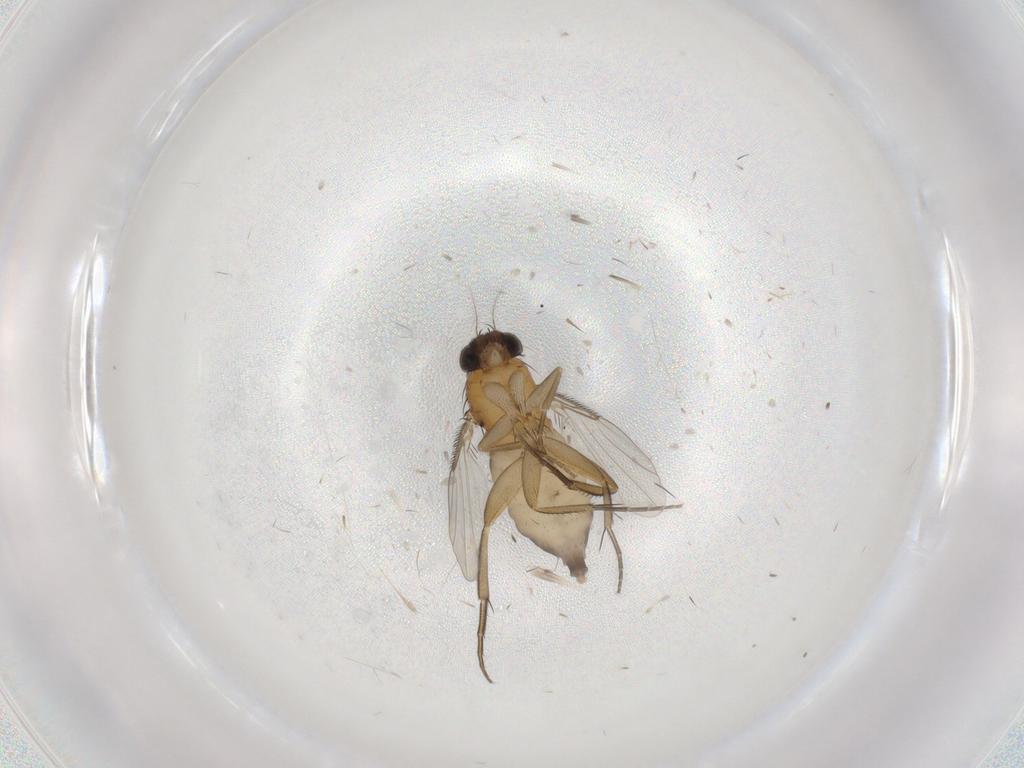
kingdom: Animalia
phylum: Arthropoda
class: Insecta
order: Diptera
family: Phoridae
